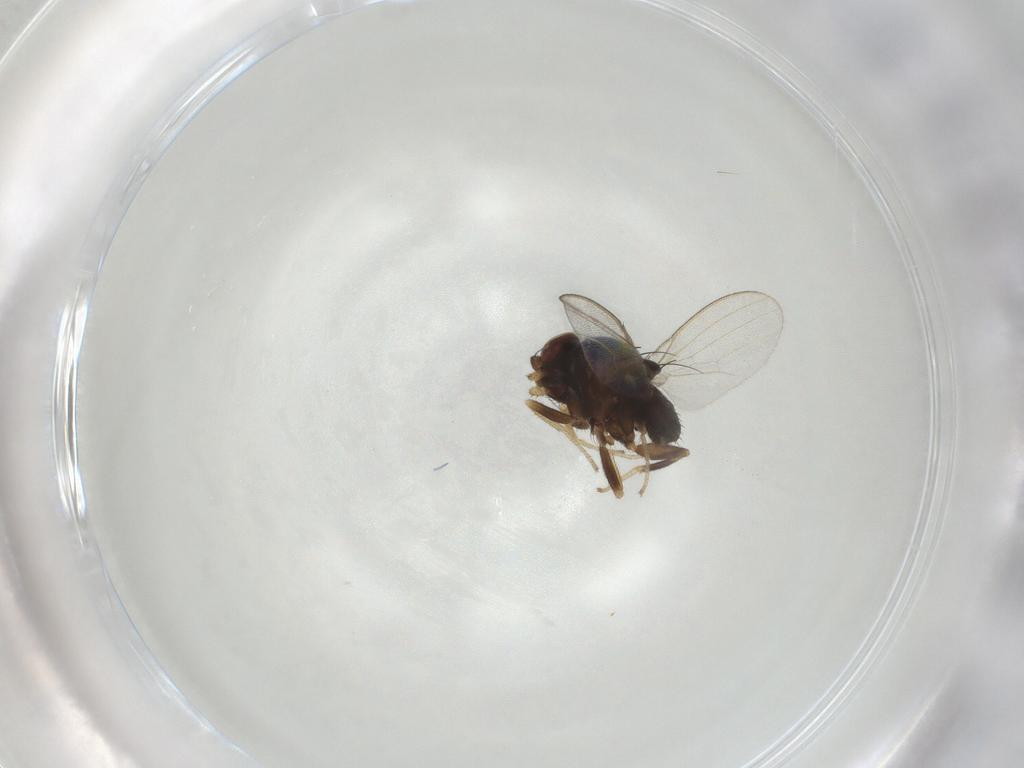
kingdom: Animalia
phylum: Arthropoda
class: Insecta
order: Diptera
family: Milichiidae
